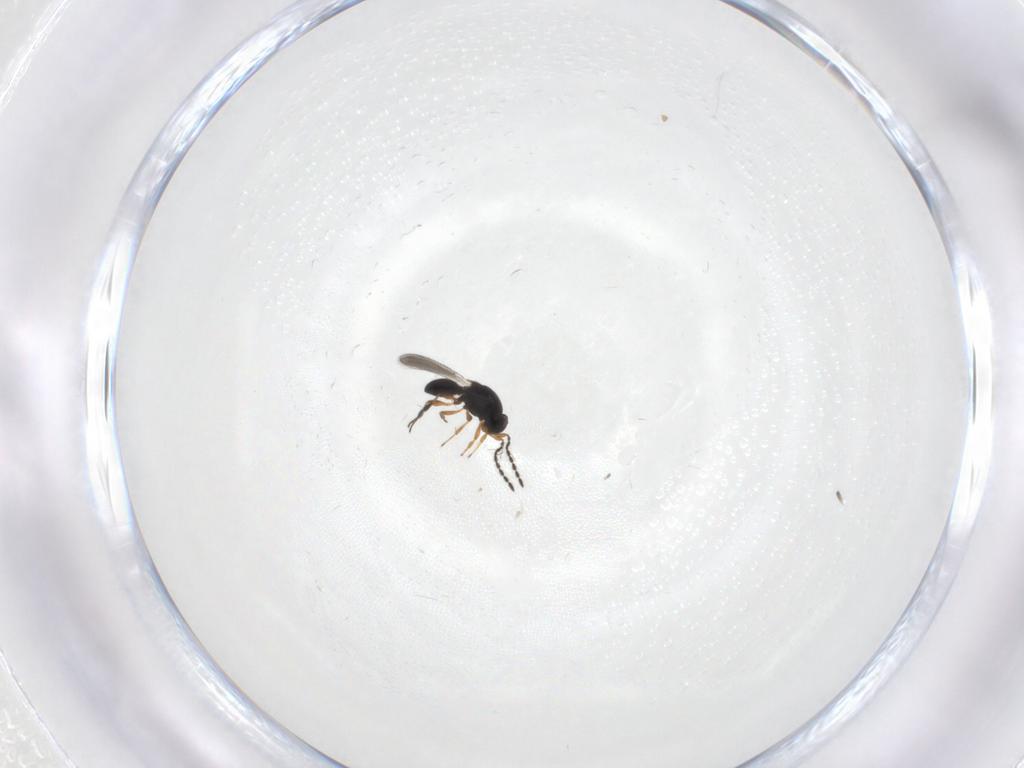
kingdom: Animalia
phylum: Arthropoda
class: Insecta
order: Hymenoptera
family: Platygastridae
